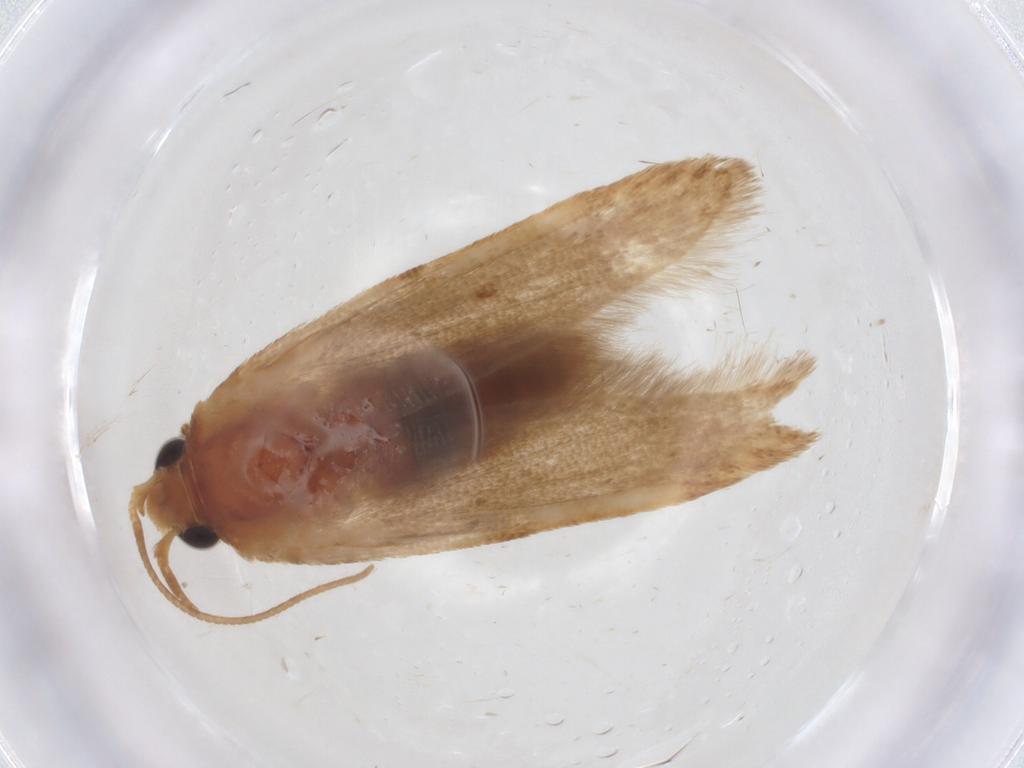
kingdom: Animalia
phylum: Arthropoda
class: Insecta
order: Lepidoptera
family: Blastobasidae
